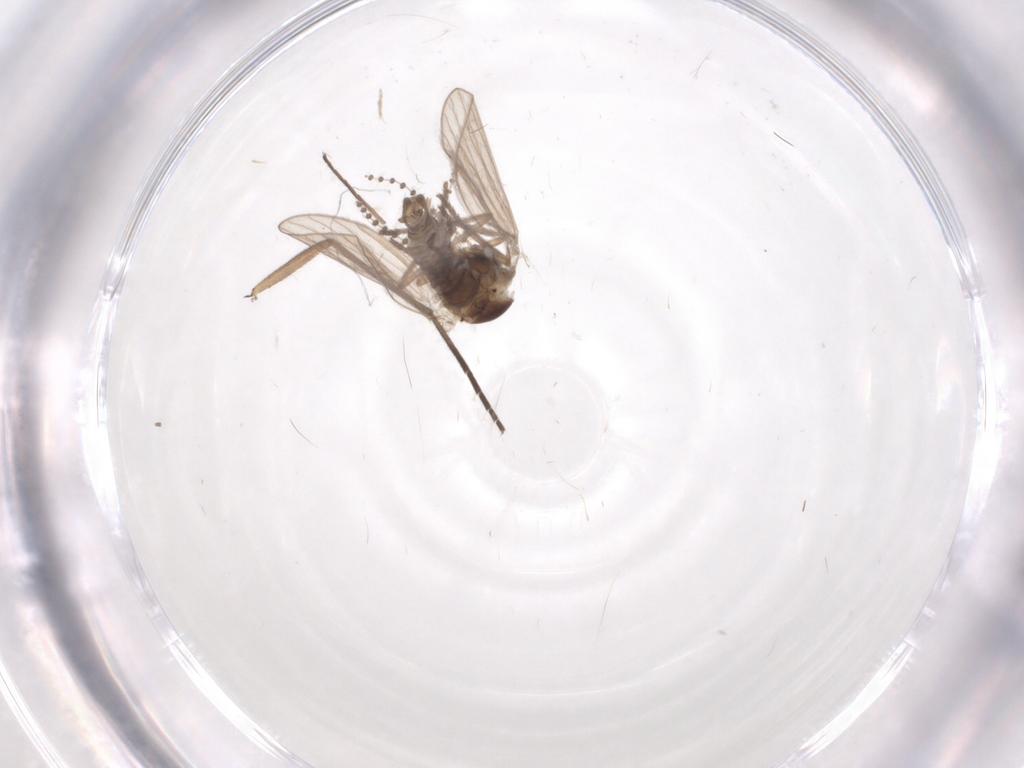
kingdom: Animalia
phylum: Arthropoda
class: Insecta
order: Diptera
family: Psychodidae
